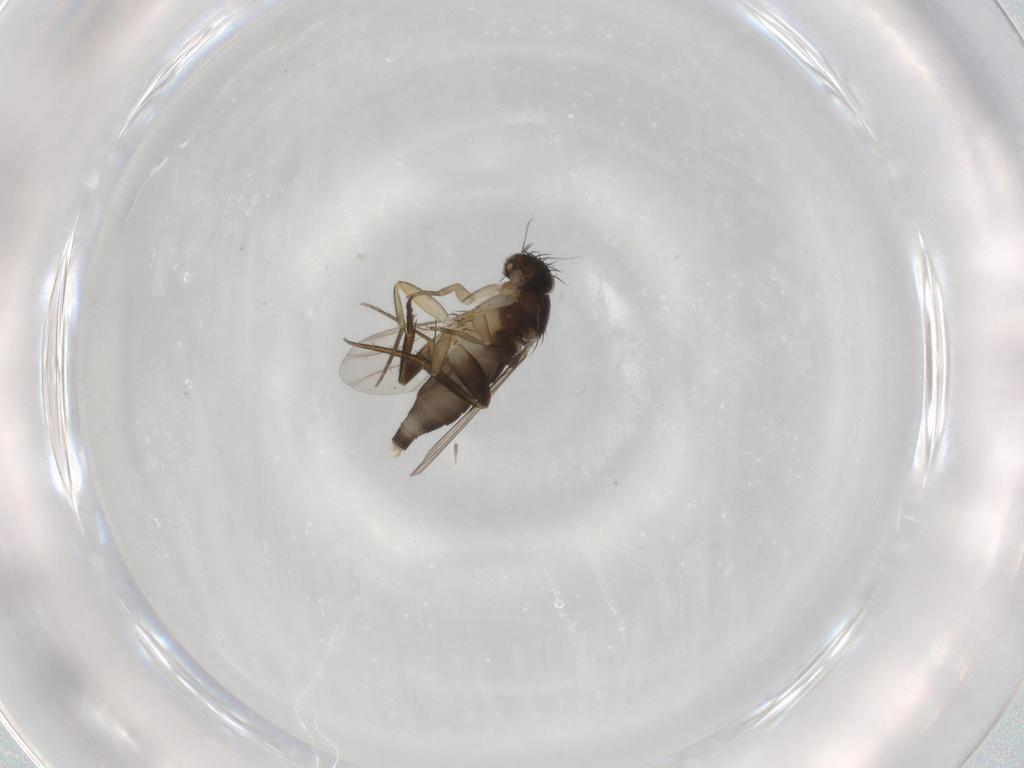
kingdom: Animalia
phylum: Arthropoda
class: Insecta
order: Diptera
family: Phoridae
